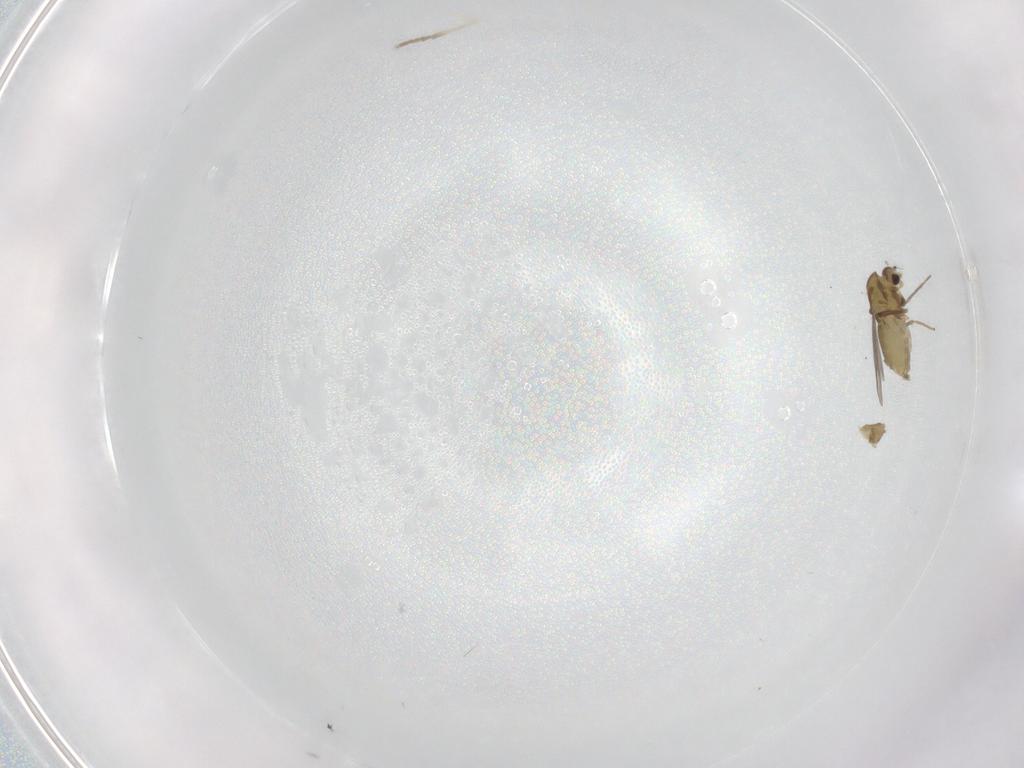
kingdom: Animalia
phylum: Arthropoda
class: Insecta
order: Diptera
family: Chironomidae
